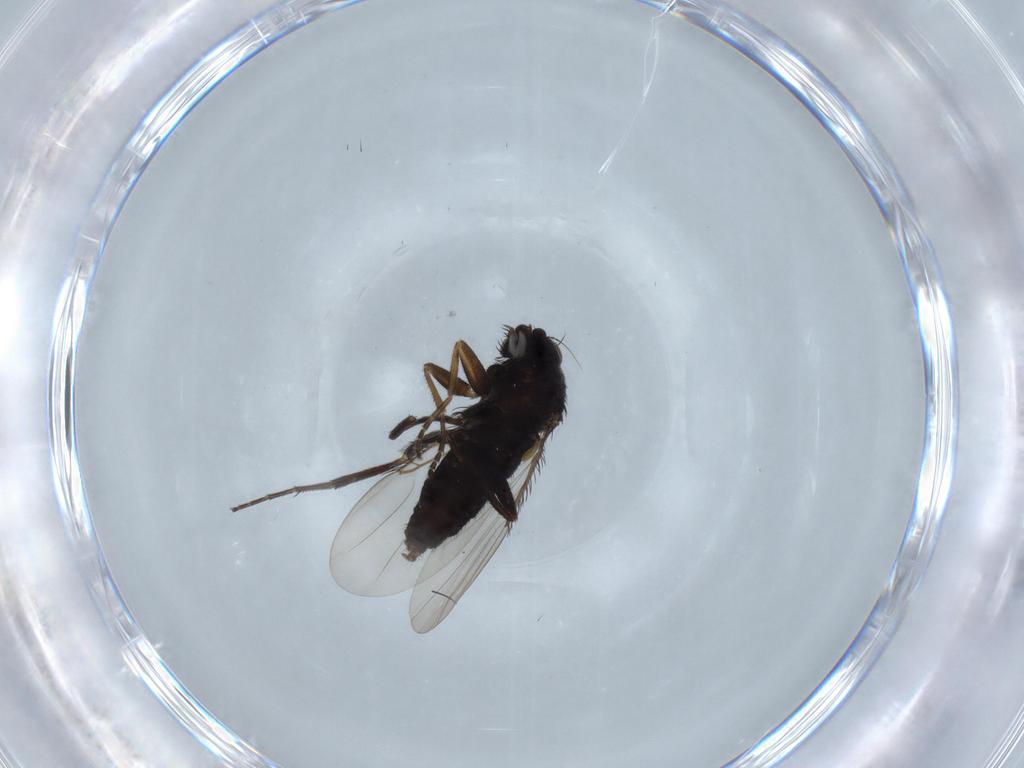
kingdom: Animalia
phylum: Arthropoda
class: Insecta
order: Diptera
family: Phoridae
